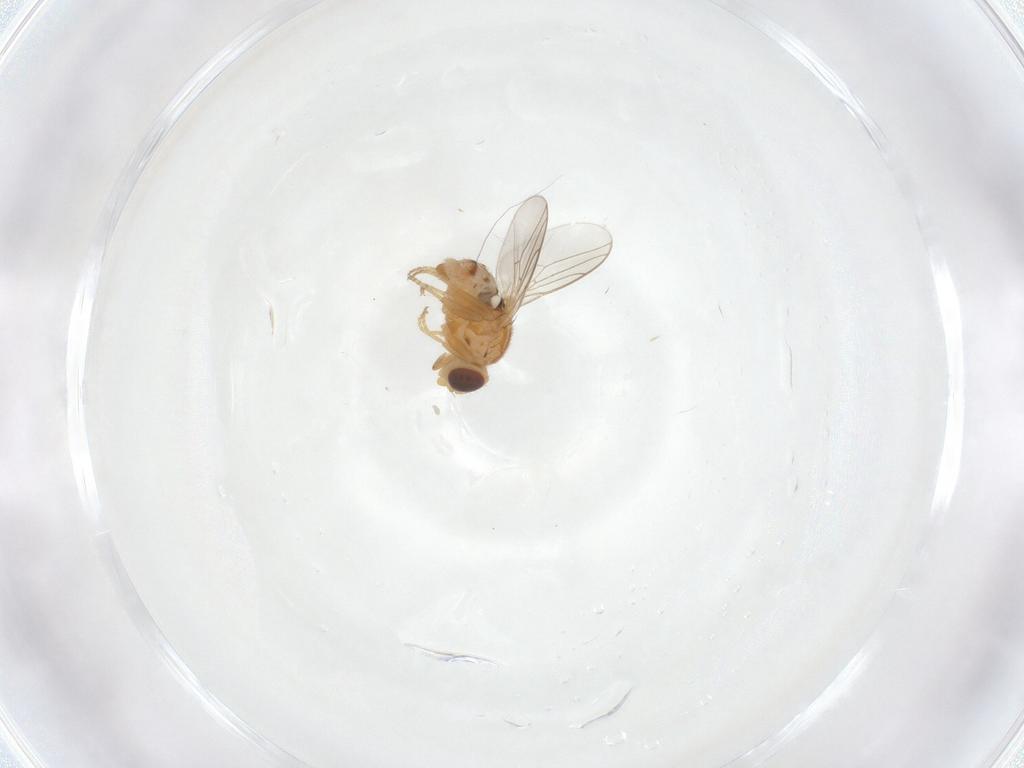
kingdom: Animalia
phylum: Arthropoda
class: Insecta
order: Diptera
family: Chloropidae
